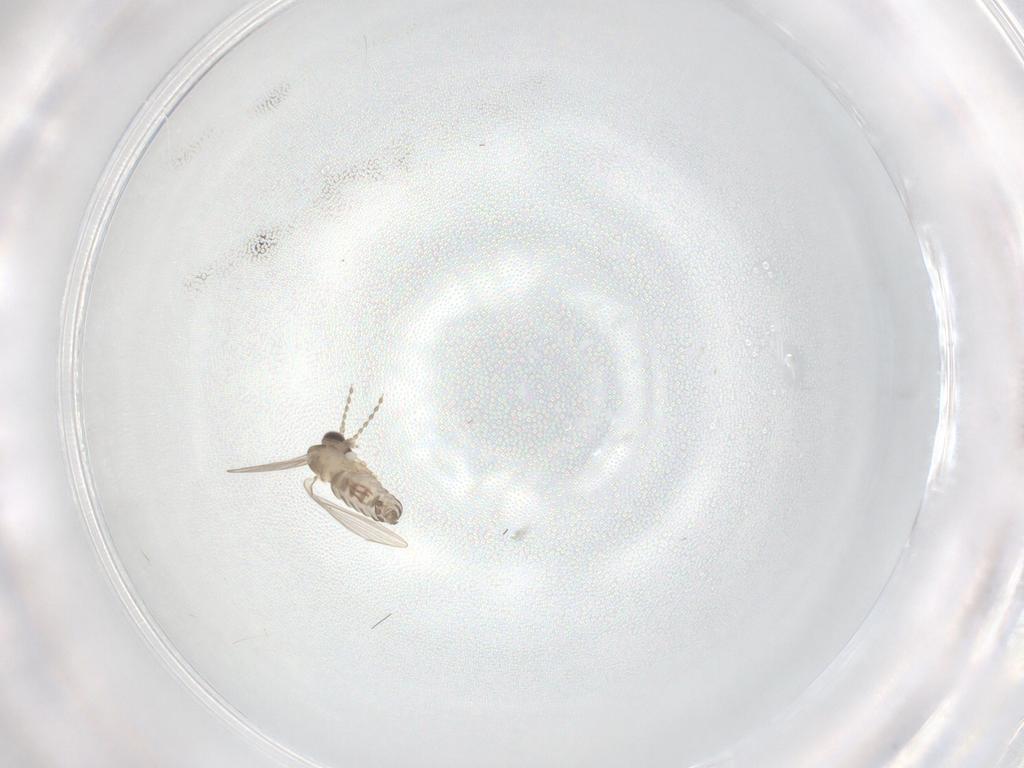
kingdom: Animalia
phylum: Arthropoda
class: Insecta
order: Diptera
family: Psychodidae
